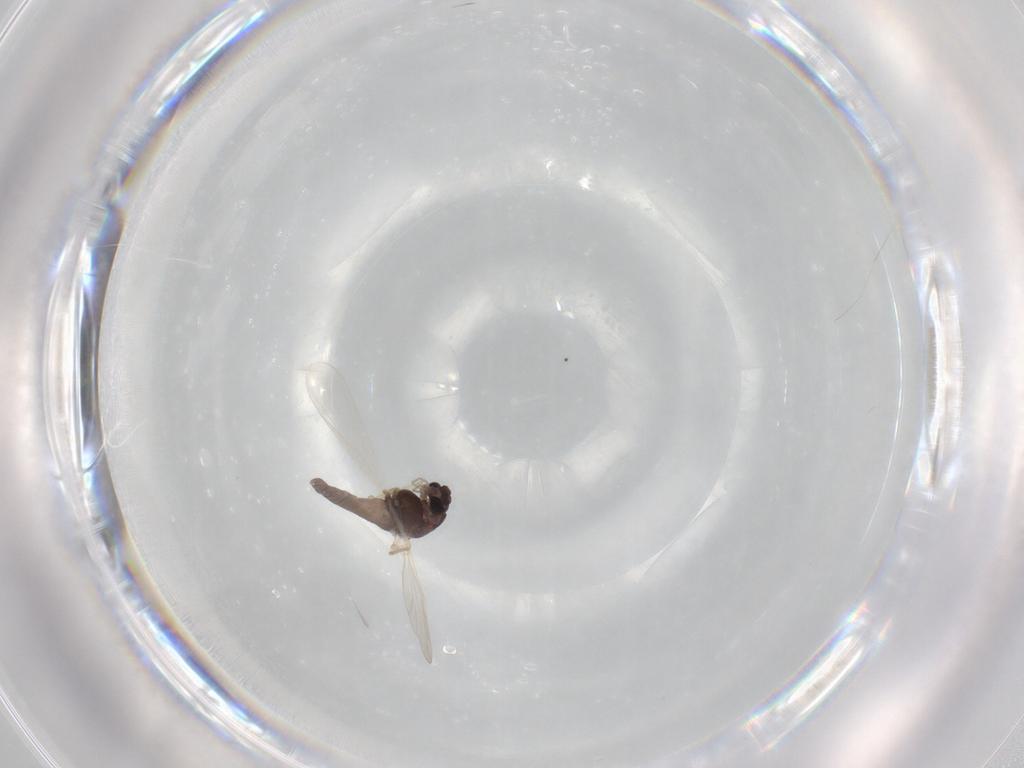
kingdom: Animalia
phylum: Arthropoda
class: Insecta
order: Diptera
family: Chironomidae
